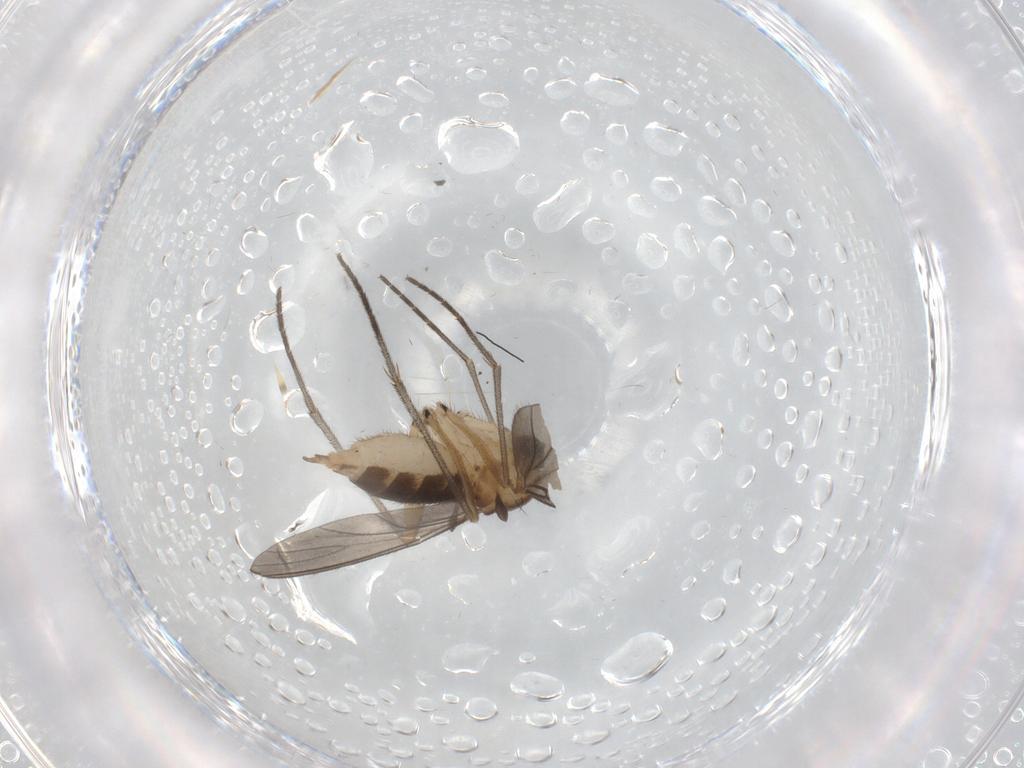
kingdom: Animalia
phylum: Arthropoda
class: Insecta
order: Diptera
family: Sciaridae
